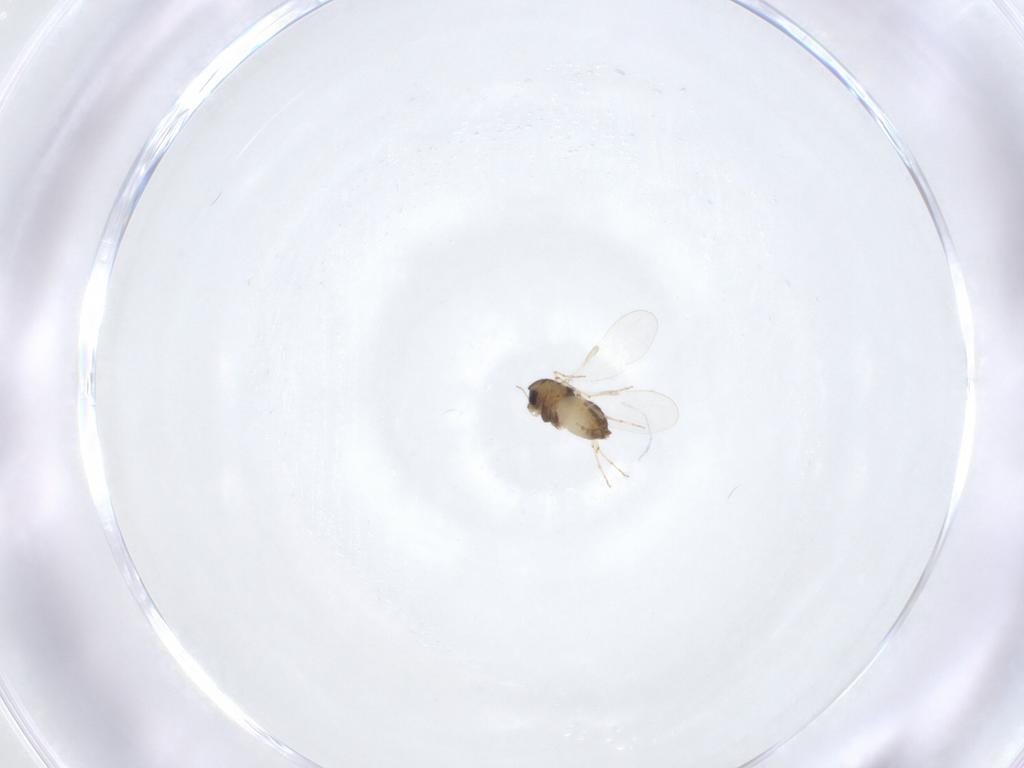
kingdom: Animalia
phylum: Arthropoda
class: Insecta
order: Diptera
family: Chironomidae
